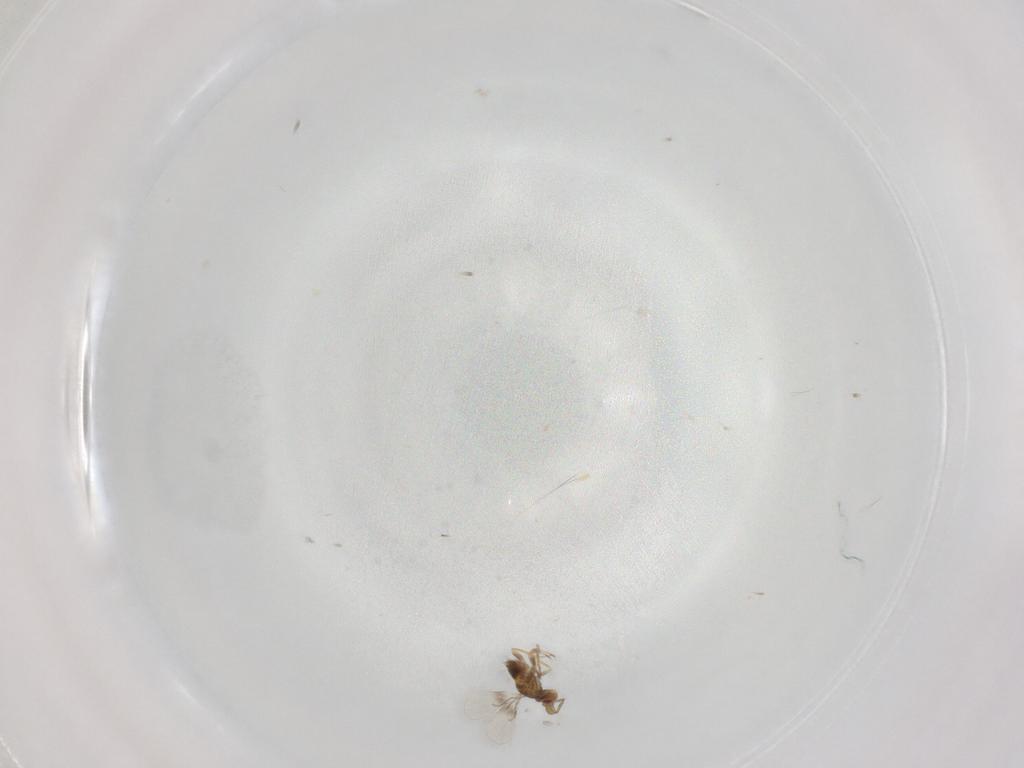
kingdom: Animalia
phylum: Arthropoda
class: Insecta
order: Hymenoptera
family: Trichogrammatidae
